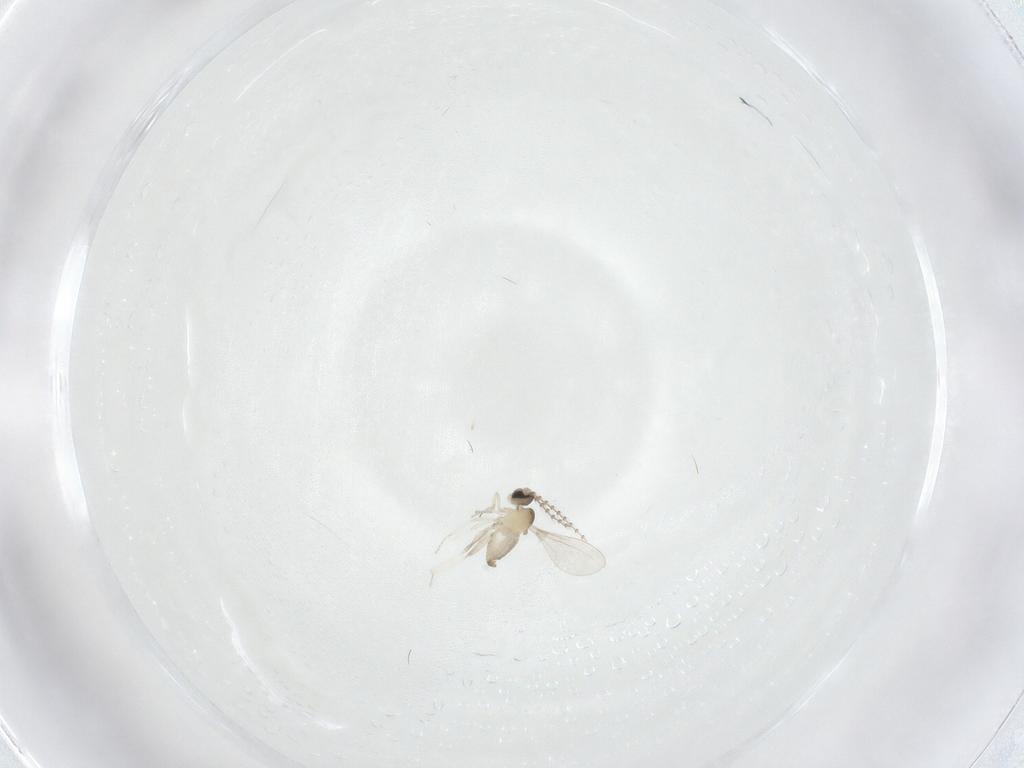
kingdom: Animalia
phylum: Arthropoda
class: Insecta
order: Diptera
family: Cecidomyiidae
